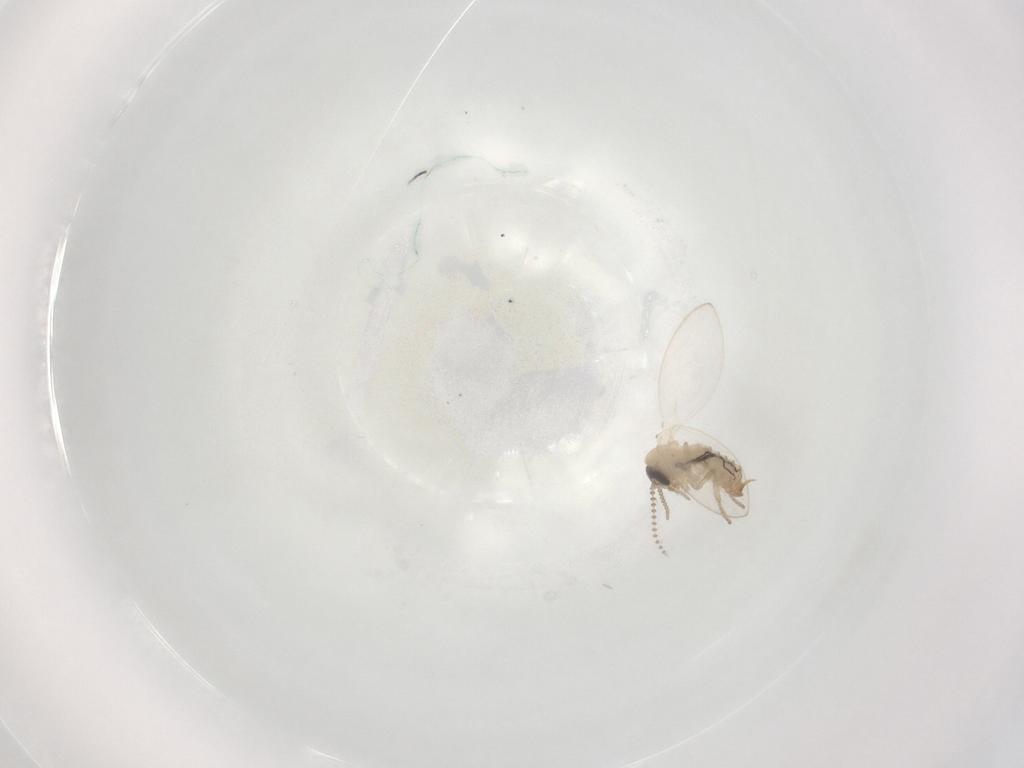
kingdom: Animalia
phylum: Arthropoda
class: Insecta
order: Diptera
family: Psychodidae
